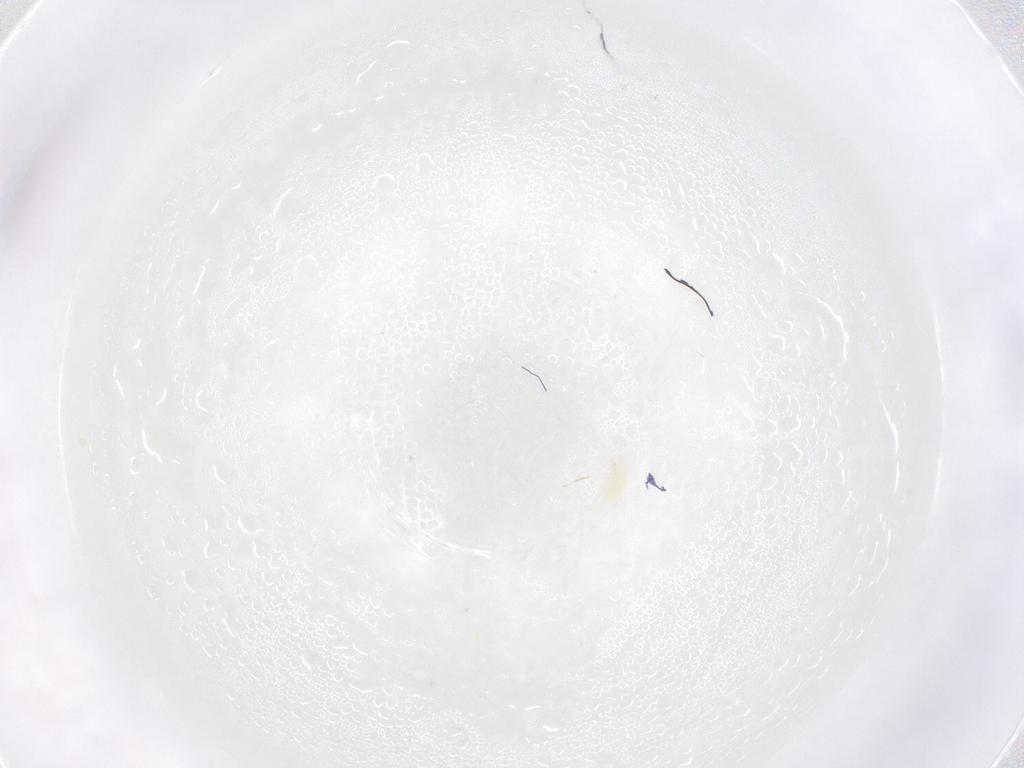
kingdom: Animalia
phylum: Arthropoda
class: Arachnida
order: Trombidiformes
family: Eupodidae
